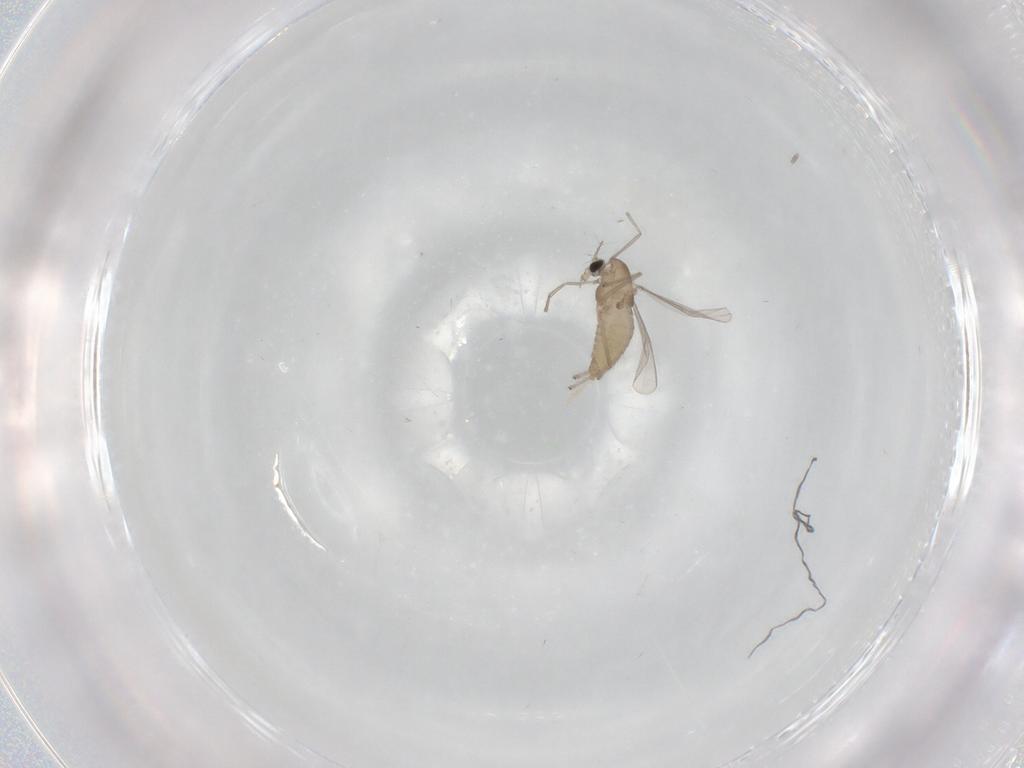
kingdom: Animalia
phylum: Arthropoda
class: Insecta
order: Diptera
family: Chironomidae
